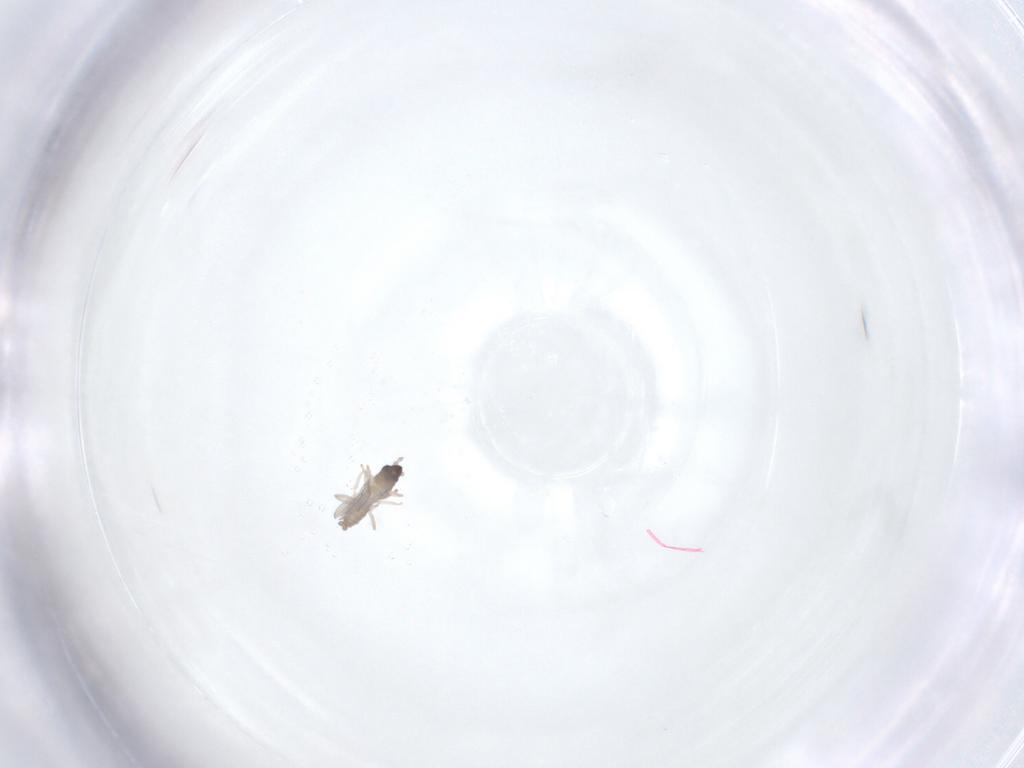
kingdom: Animalia
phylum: Arthropoda
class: Insecta
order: Diptera
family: Cecidomyiidae
